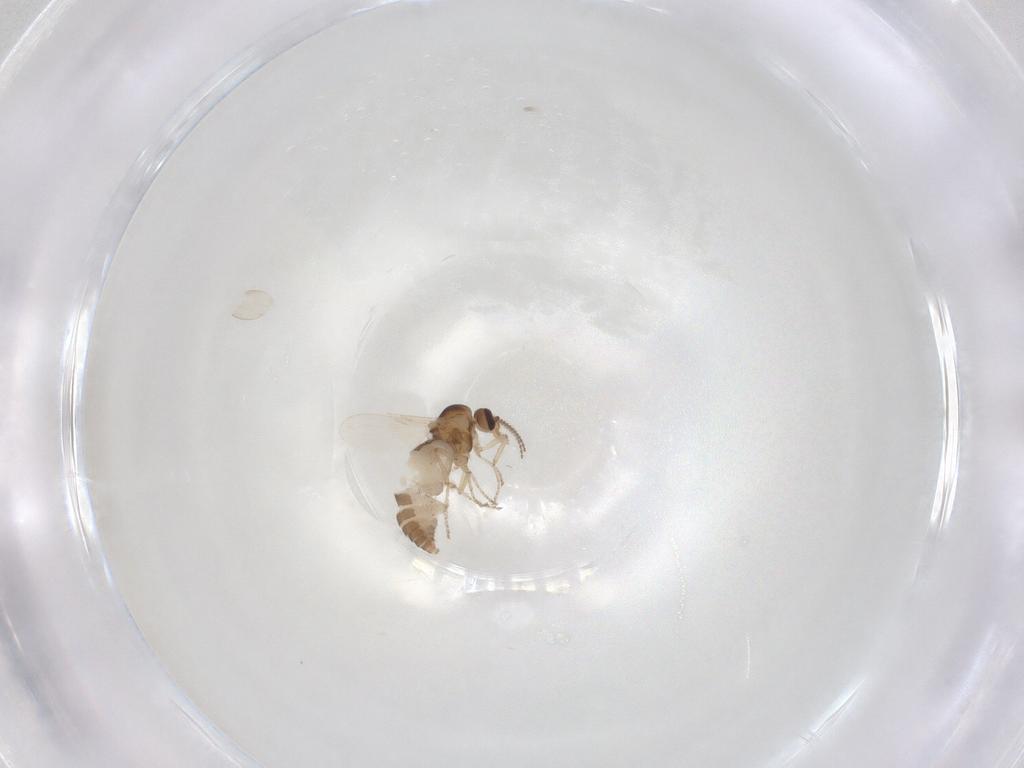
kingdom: Animalia
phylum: Arthropoda
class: Insecta
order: Diptera
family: Ceratopogonidae
